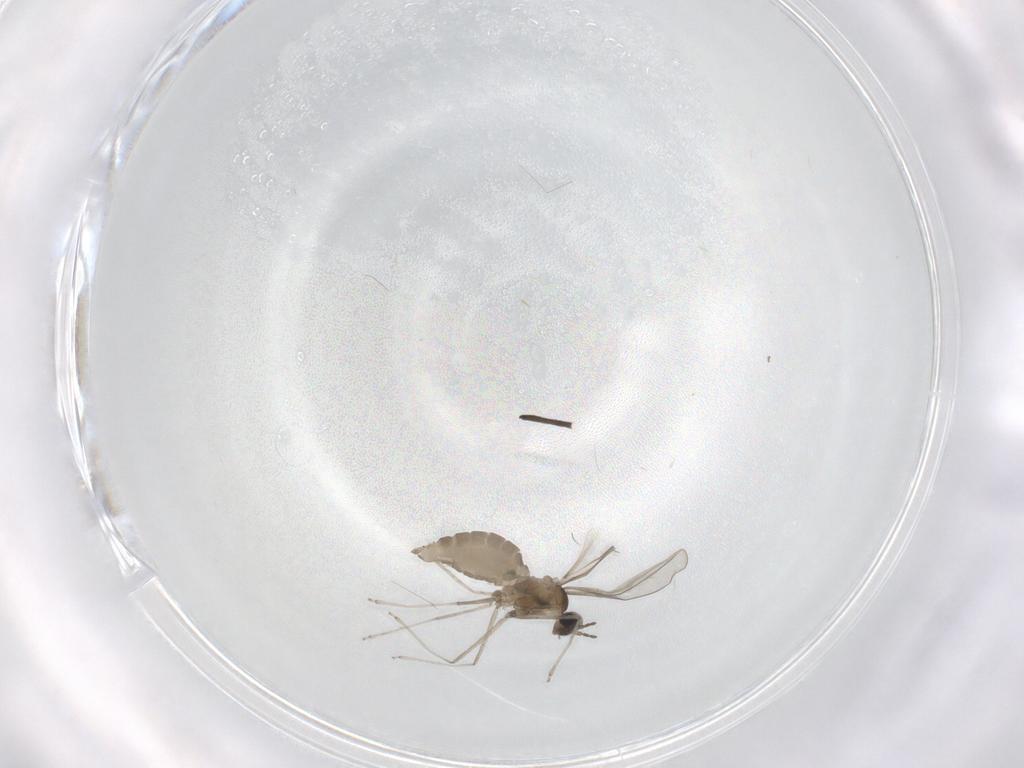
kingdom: Animalia
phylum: Arthropoda
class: Insecta
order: Diptera
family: Cecidomyiidae
